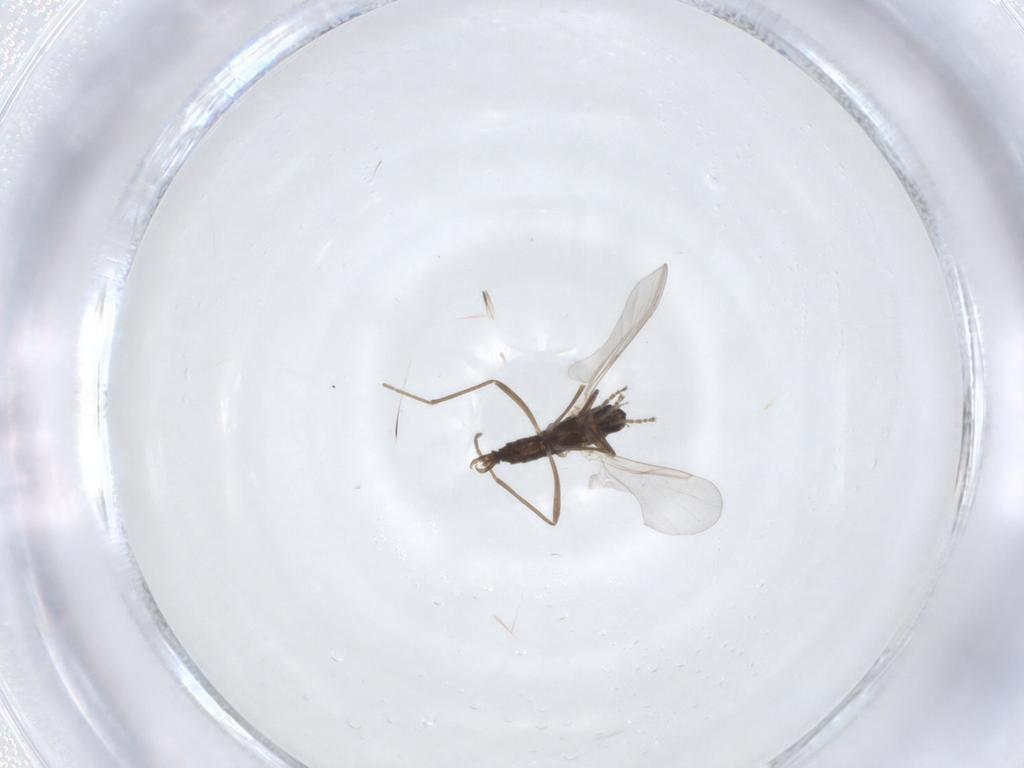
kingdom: Animalia
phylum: Arthropoda
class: Insecta
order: Diptera
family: Cecidomyiidae
